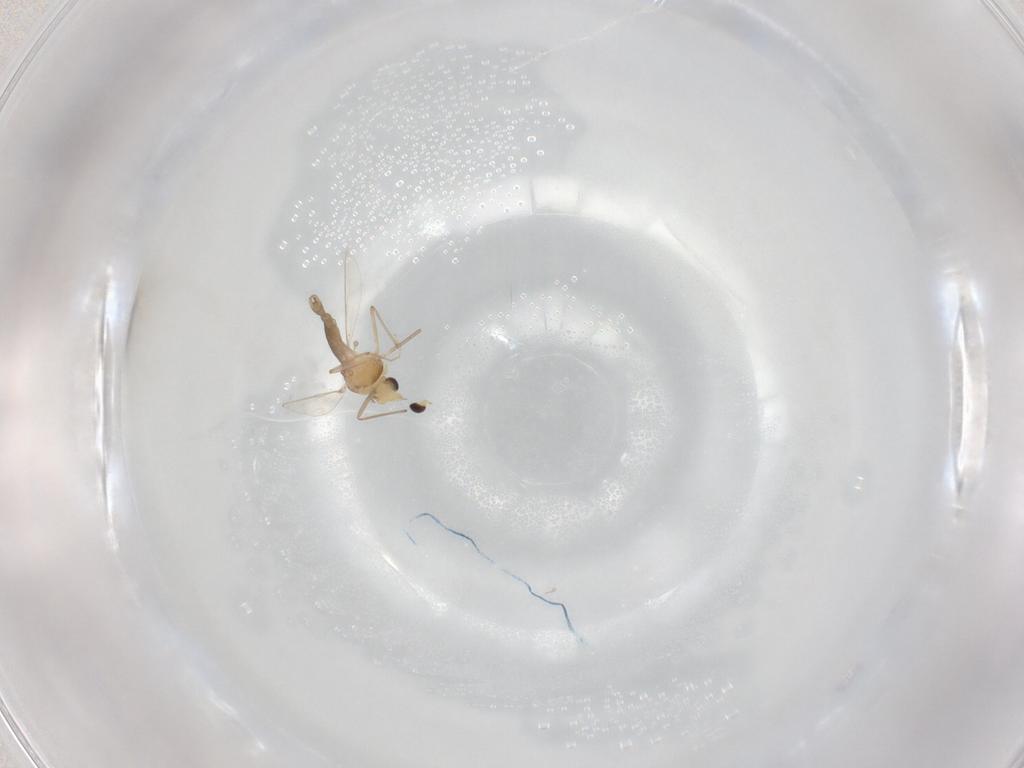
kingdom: Animalia
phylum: Arthropoda
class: Insecta
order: Diptera
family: Chironomidae
